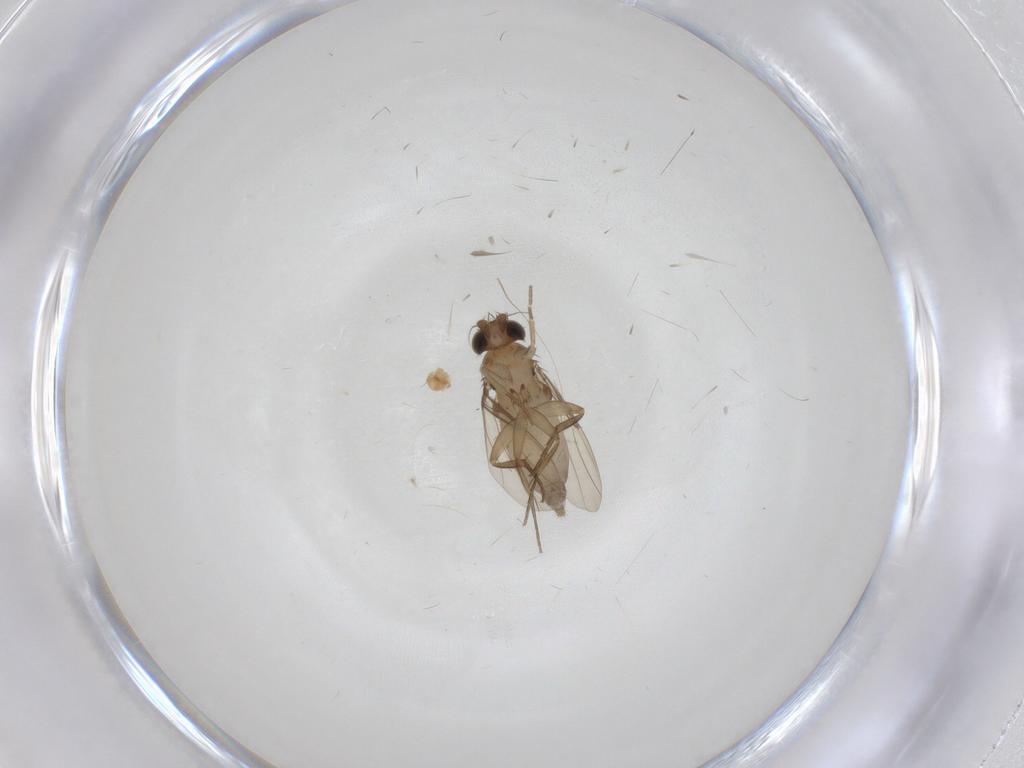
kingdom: Animalia
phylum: Arthropoda
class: Insecta
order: Diptera
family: Phoridae
